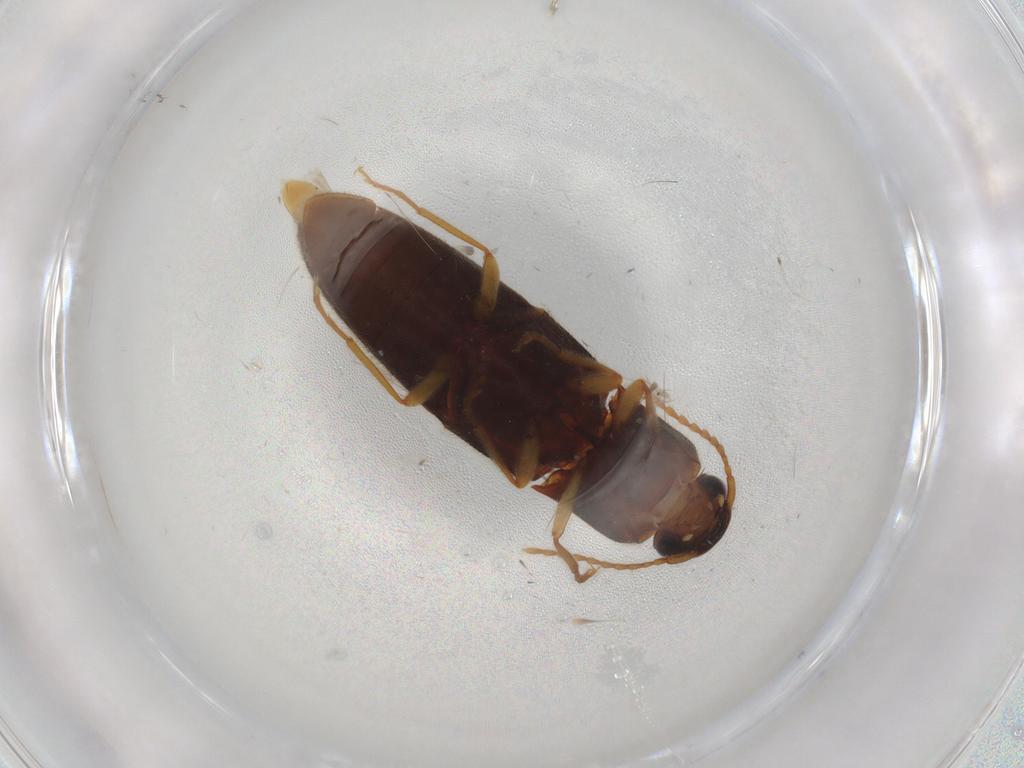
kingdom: Animalia
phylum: Arthropoda
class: Insecta
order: Coleoptera
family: Elateridae
